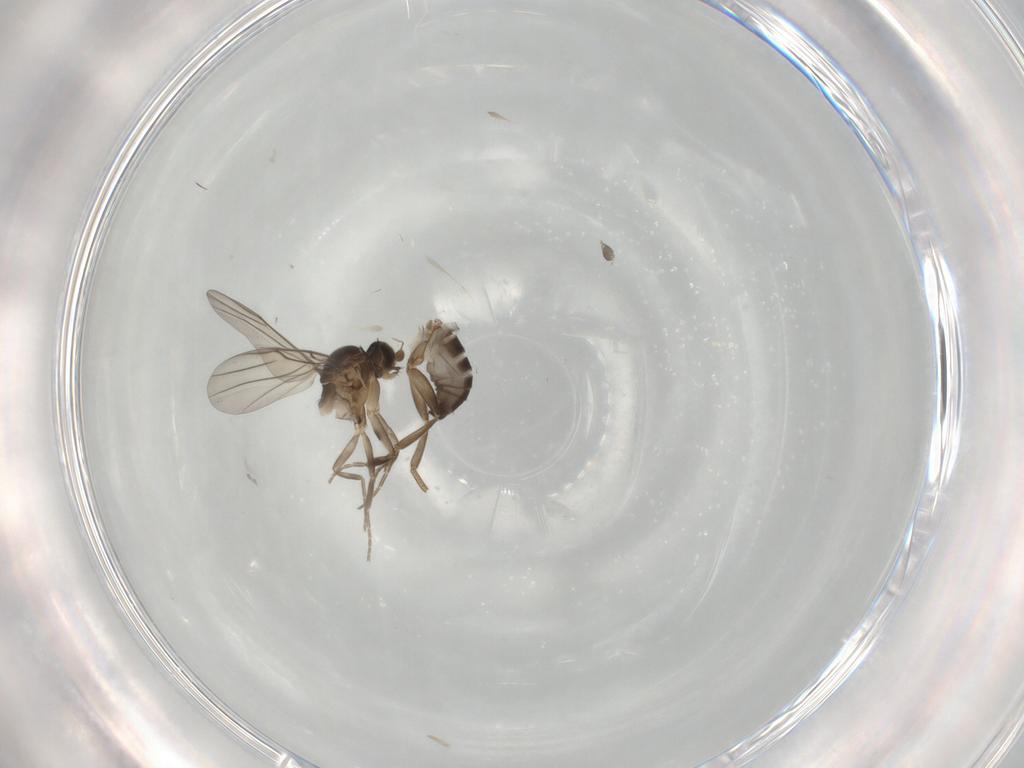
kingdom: Animalia
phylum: Arthropoda
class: Insecta
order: Diptera
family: Phoridae
